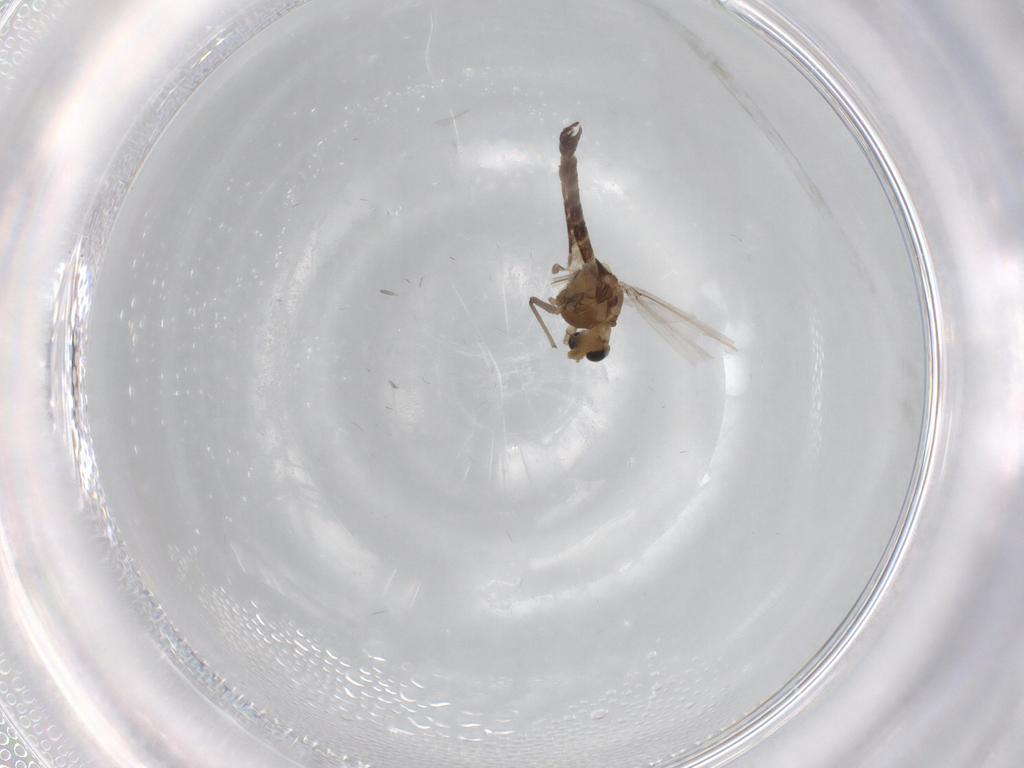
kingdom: Animalia
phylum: Arthropoda
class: Insecta
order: Diptera
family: Chironomidae
